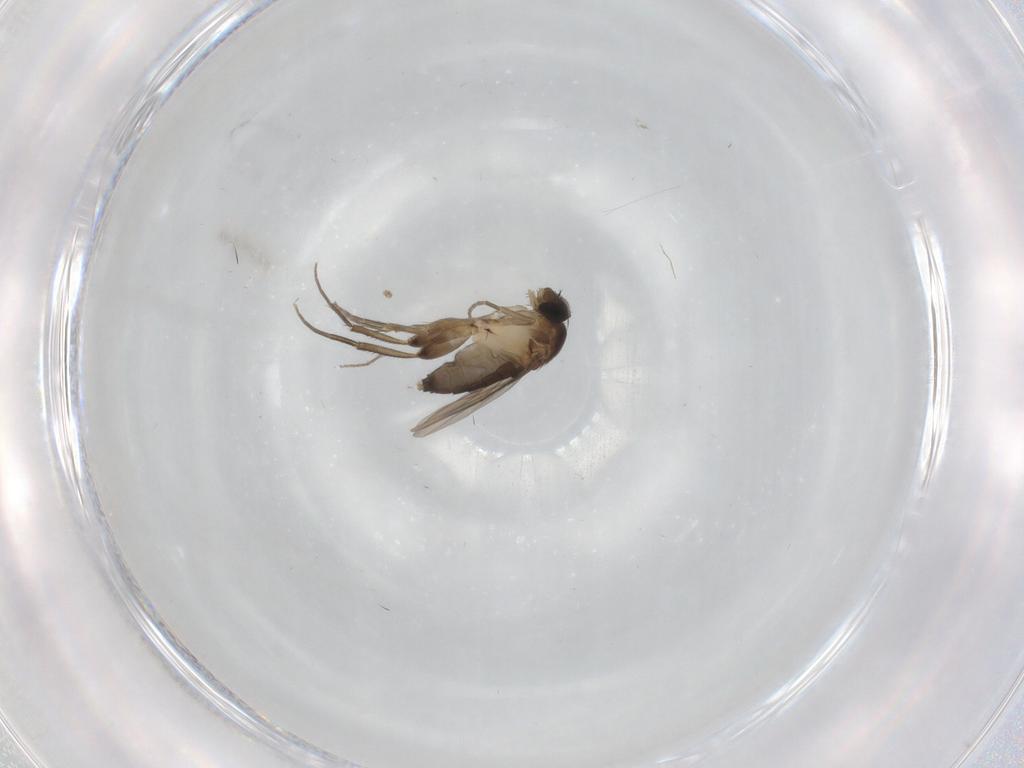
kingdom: Animalia
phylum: Arthropoda
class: Insecta
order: Diptera
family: Phoridae
